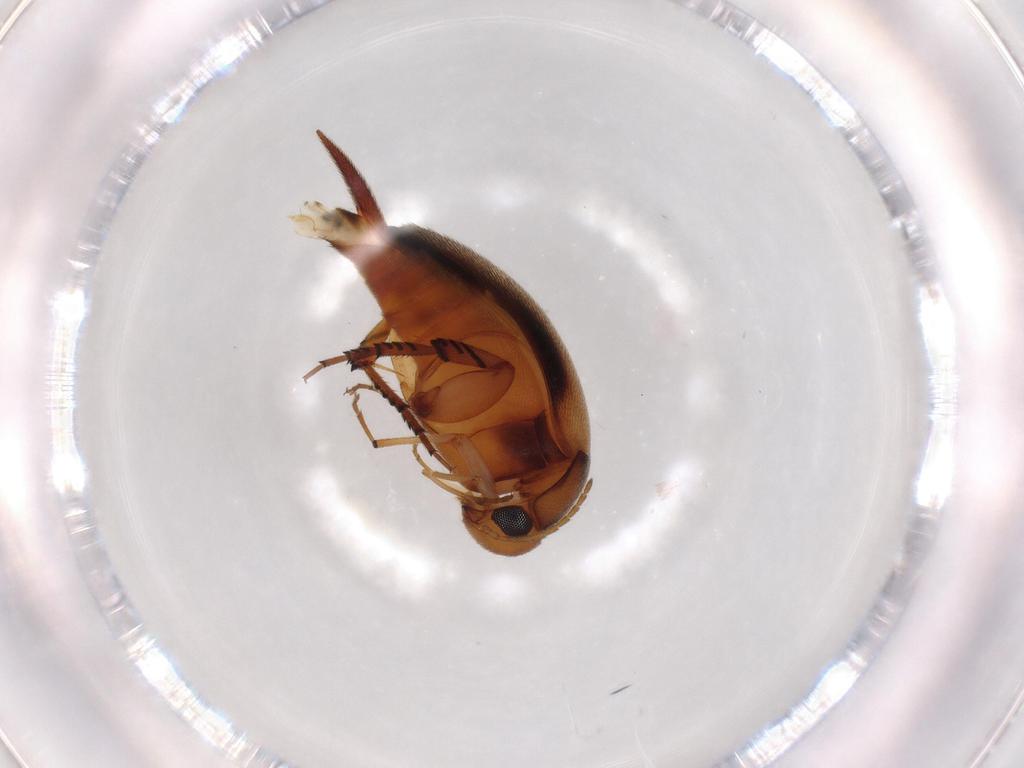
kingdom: Animalia
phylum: Arthropoda
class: Insecta
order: Coleoptera
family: Mordellidae
